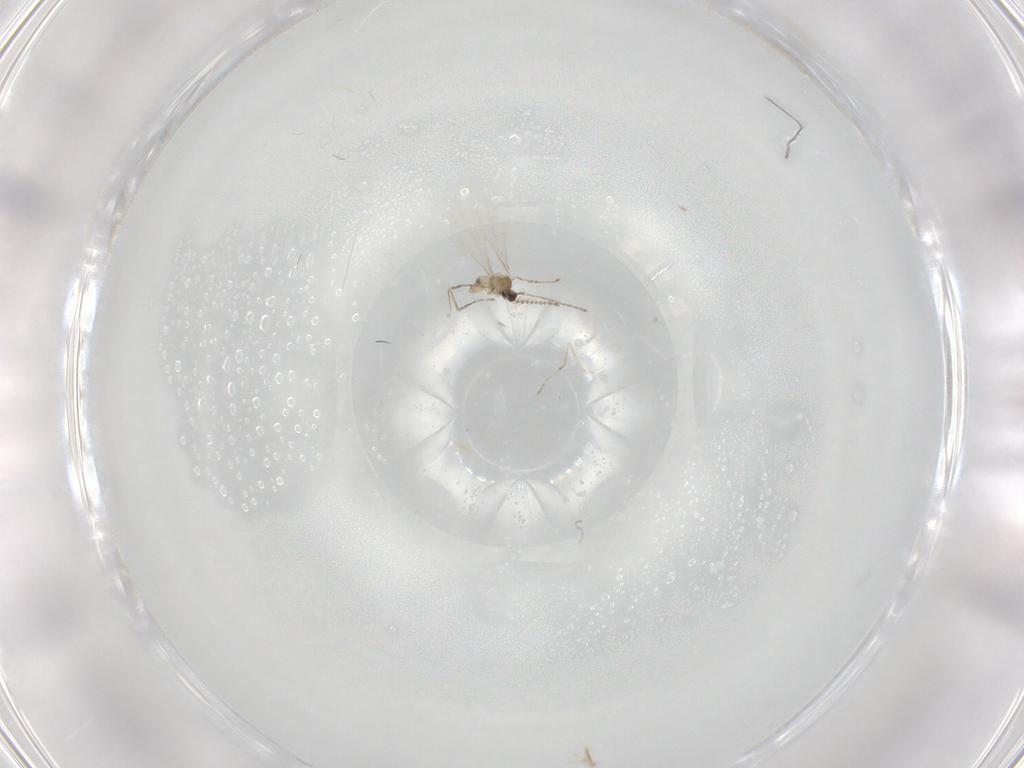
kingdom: Animalia
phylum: Arthropoda
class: Insecta
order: Diptera
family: Cecidomyiidae
